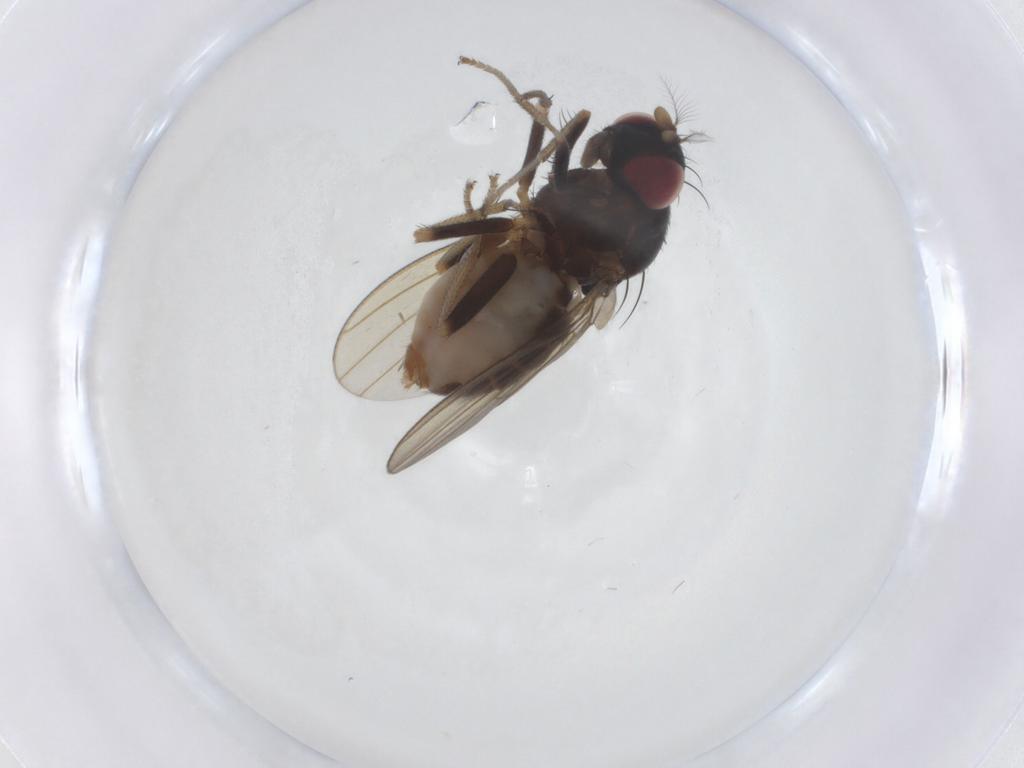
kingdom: Animalia
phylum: Arthropoda
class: Insecta
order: Diptera
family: Lauxaniidae
